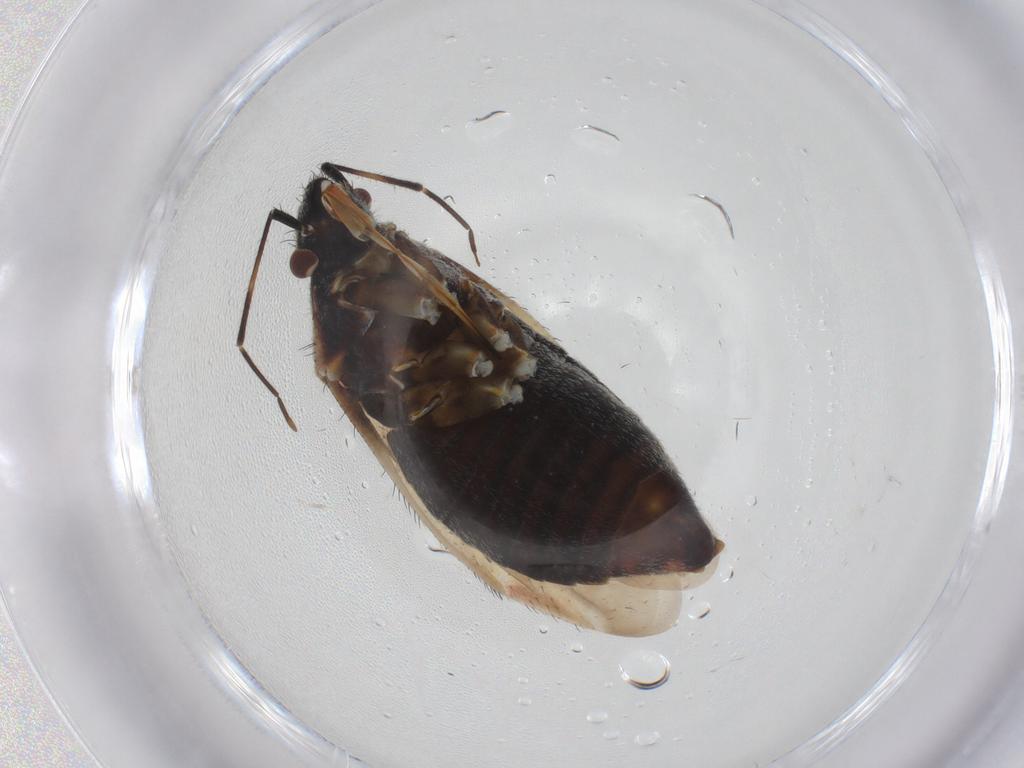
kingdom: Animalia
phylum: Arthropoda
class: Insecta
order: Hemiptera
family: Miridae
